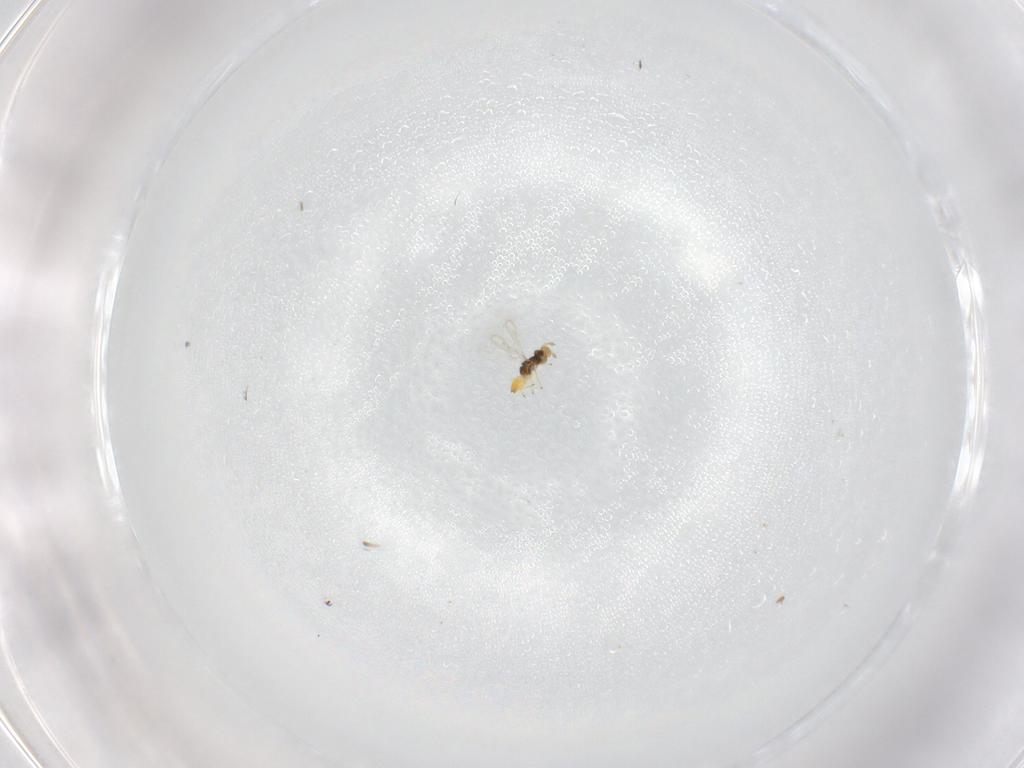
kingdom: Animalia
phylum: Arthropoda
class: Insecta
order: Hymenoptera
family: Eulophidae
